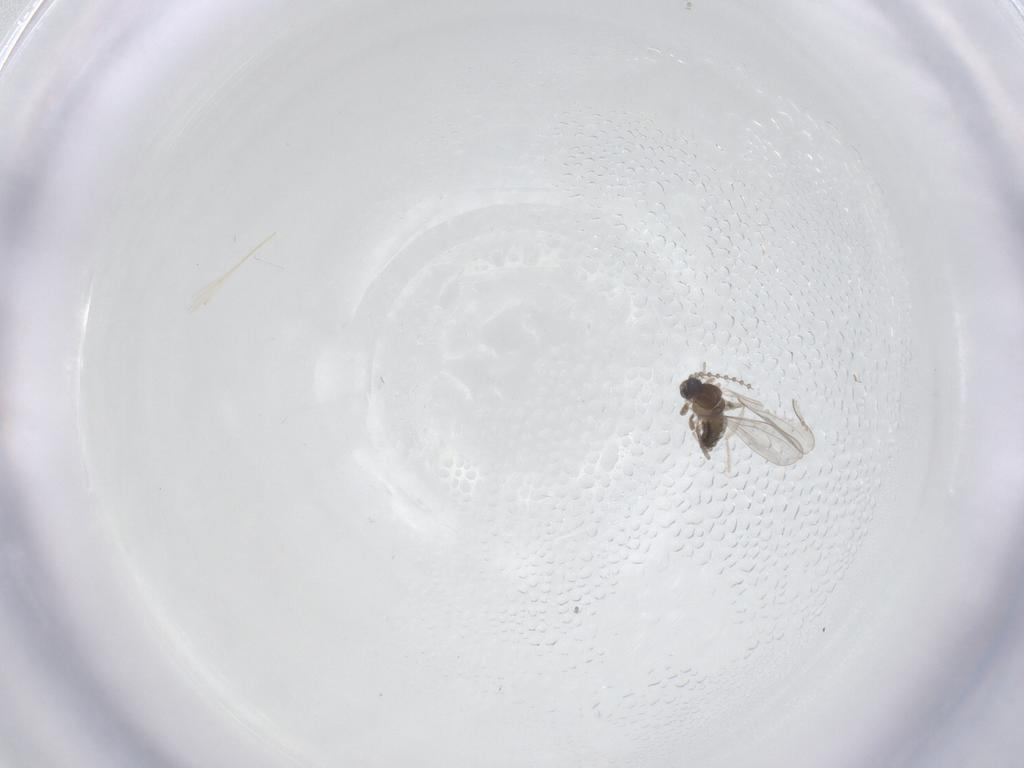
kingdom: Animalia
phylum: Arthropoda
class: Insecta
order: Diptera
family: Cecidomyiidae
